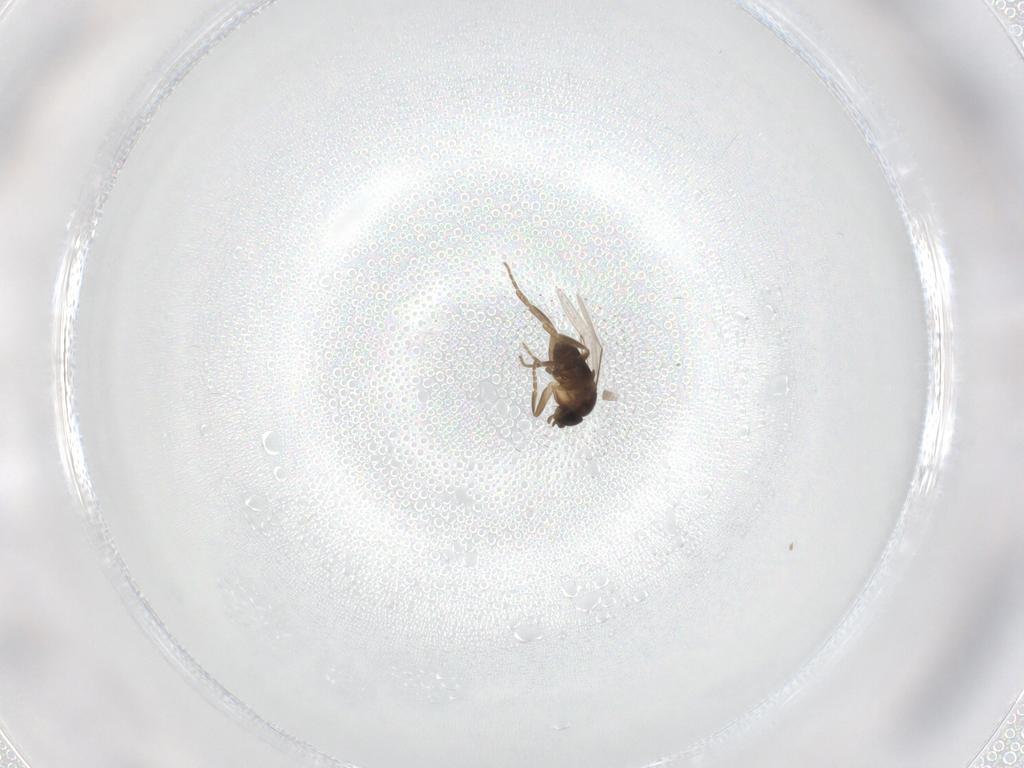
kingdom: Animalia
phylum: Arthropoda
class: Insecta
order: Diptera
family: Phoridae
